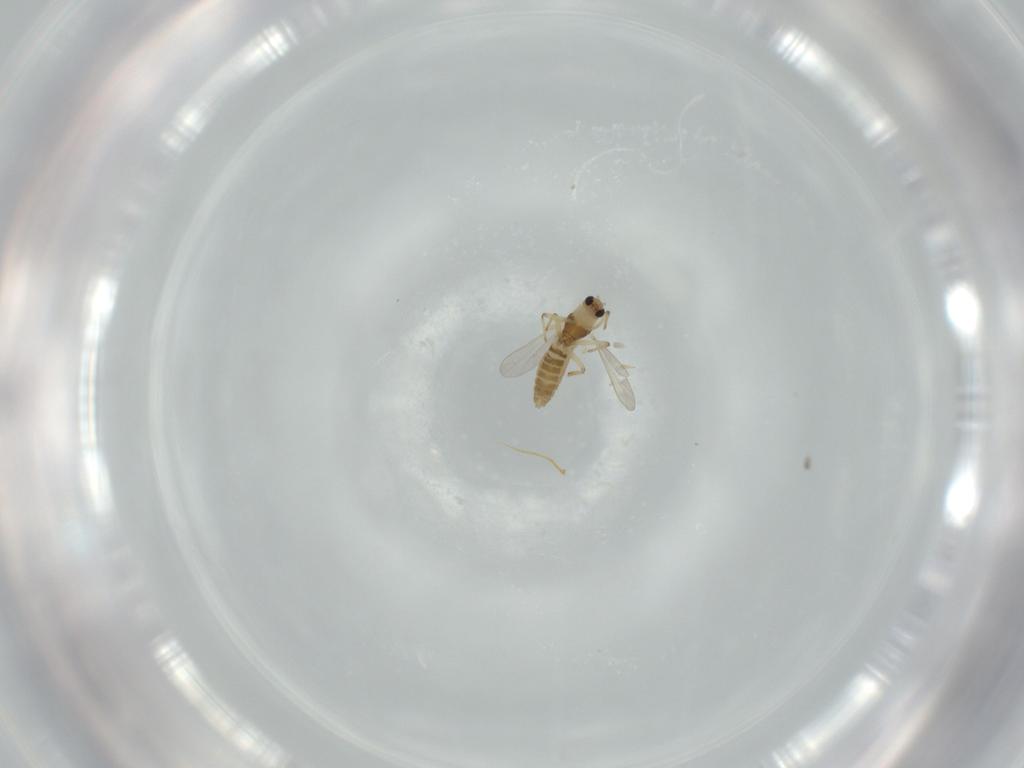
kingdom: Animalia
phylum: Arthropoda
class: Insecta
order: Diptera
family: Chironomidae
